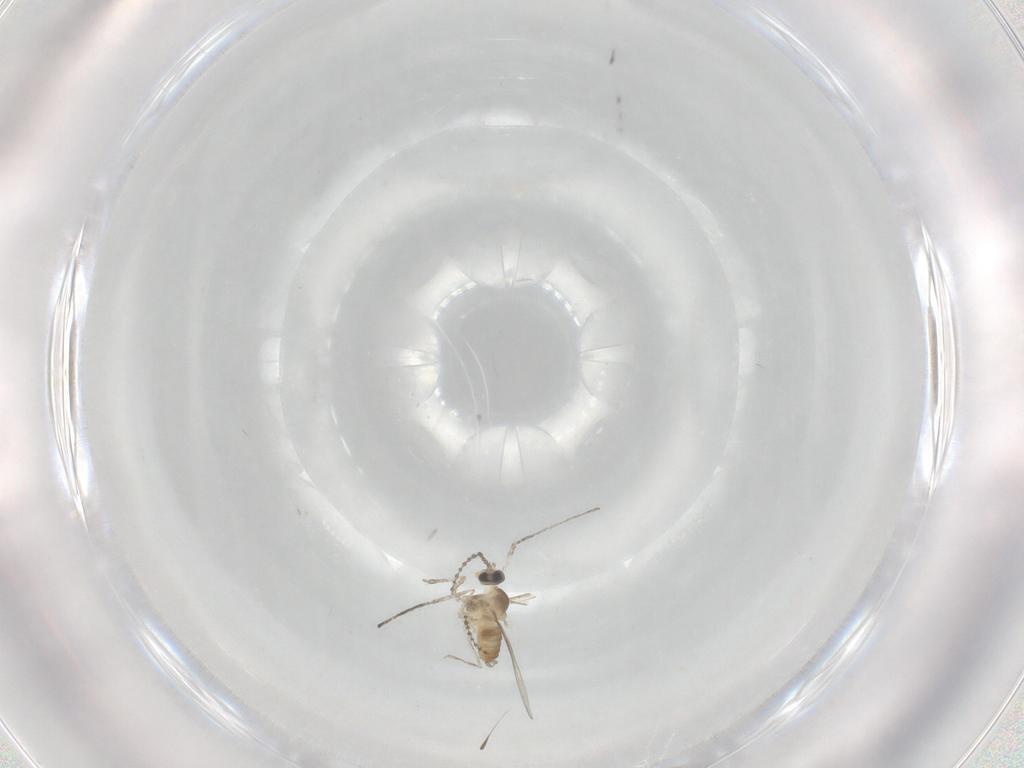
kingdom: Animalia
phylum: Arthropoda
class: Insecta
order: Diptera
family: Cecidomyiidae
